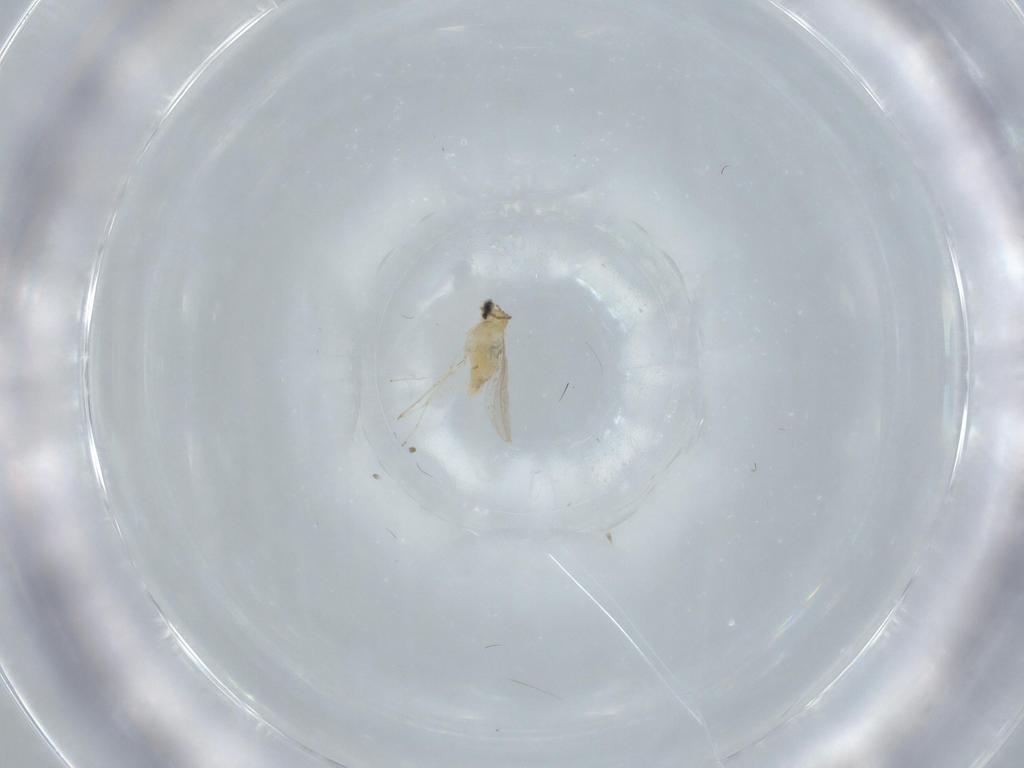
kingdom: Animalia
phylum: Arthropoda
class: Insecta
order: Diptera
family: Cecidomyiidae
